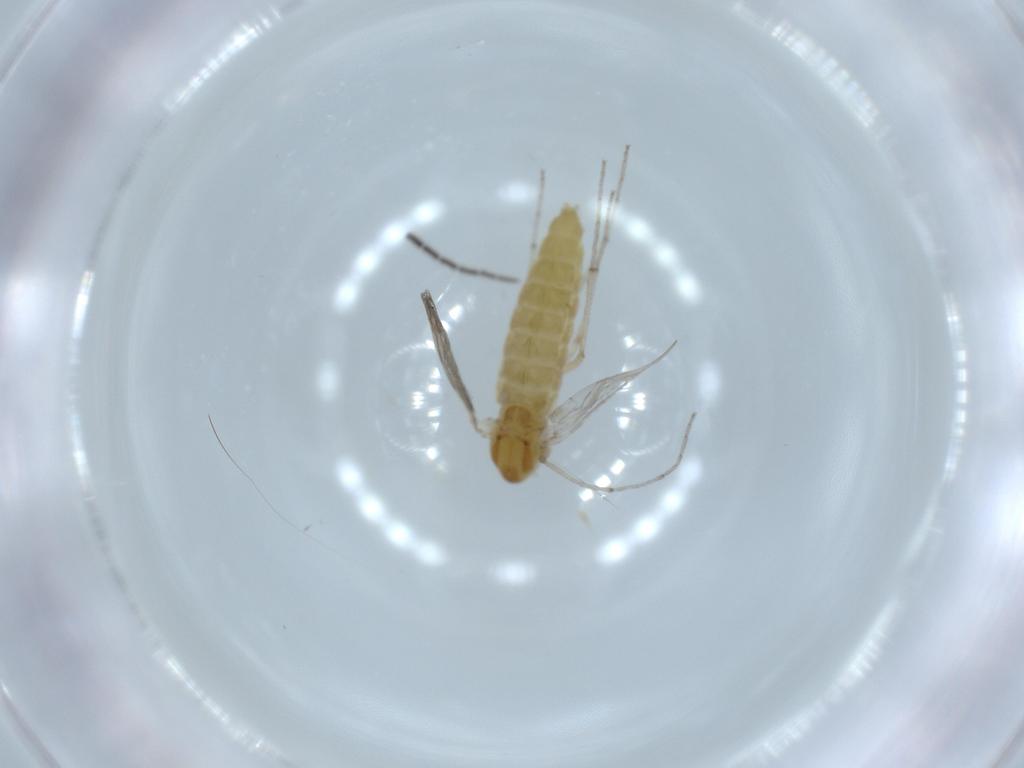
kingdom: Animalia
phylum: Arthropoda
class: Insecta
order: Diptera
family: Chironomidae
